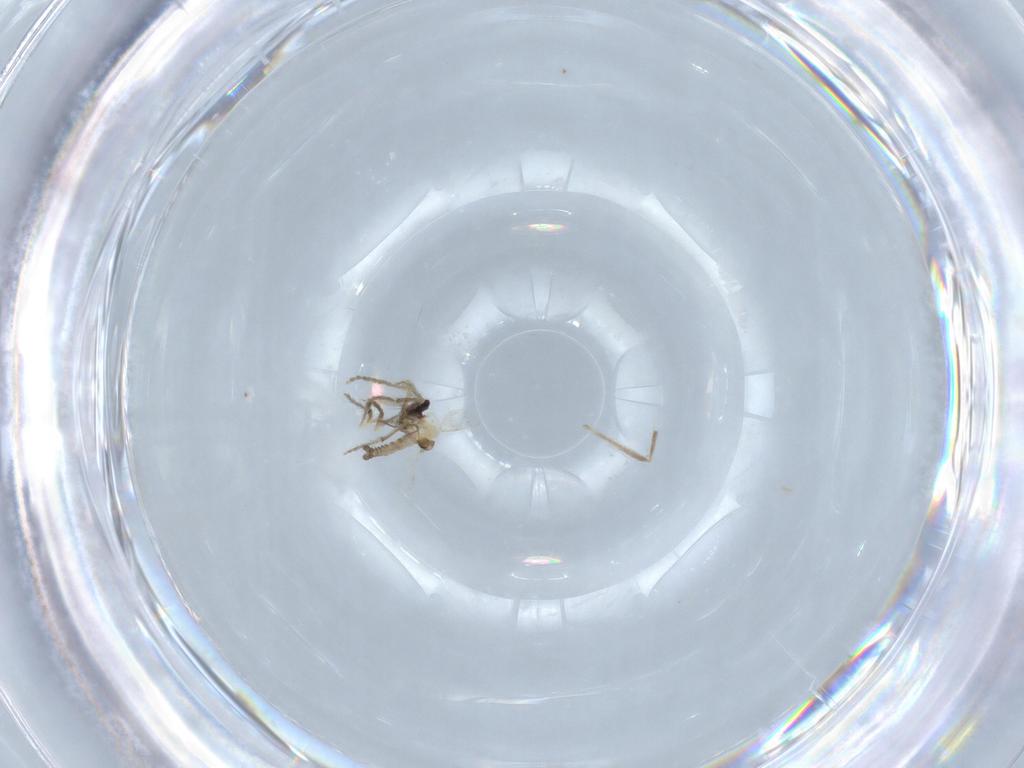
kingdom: Animalia
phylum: Arthropoda
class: Insecta
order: Diptera
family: Ceratopogonidae
